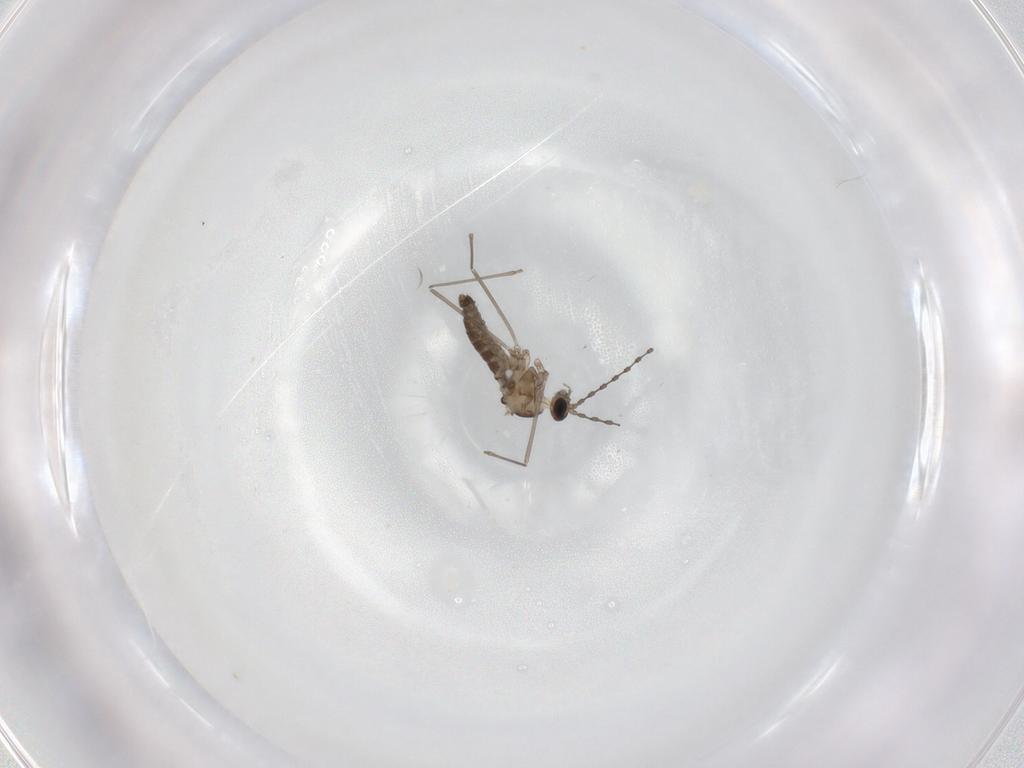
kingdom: Animalia
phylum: Arthropoda
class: Insecta
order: Diptera
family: Cecidomyiidae
